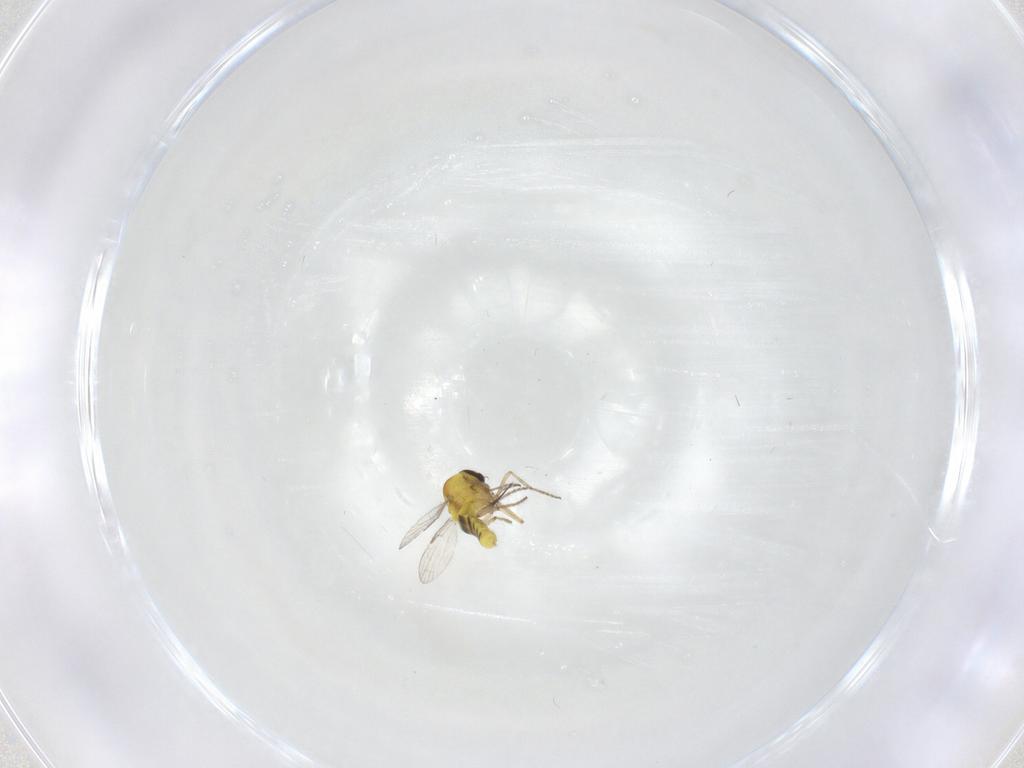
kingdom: Animalia
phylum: Arthropoda
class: Insecta
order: Diptera
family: Ceratopogonidae
